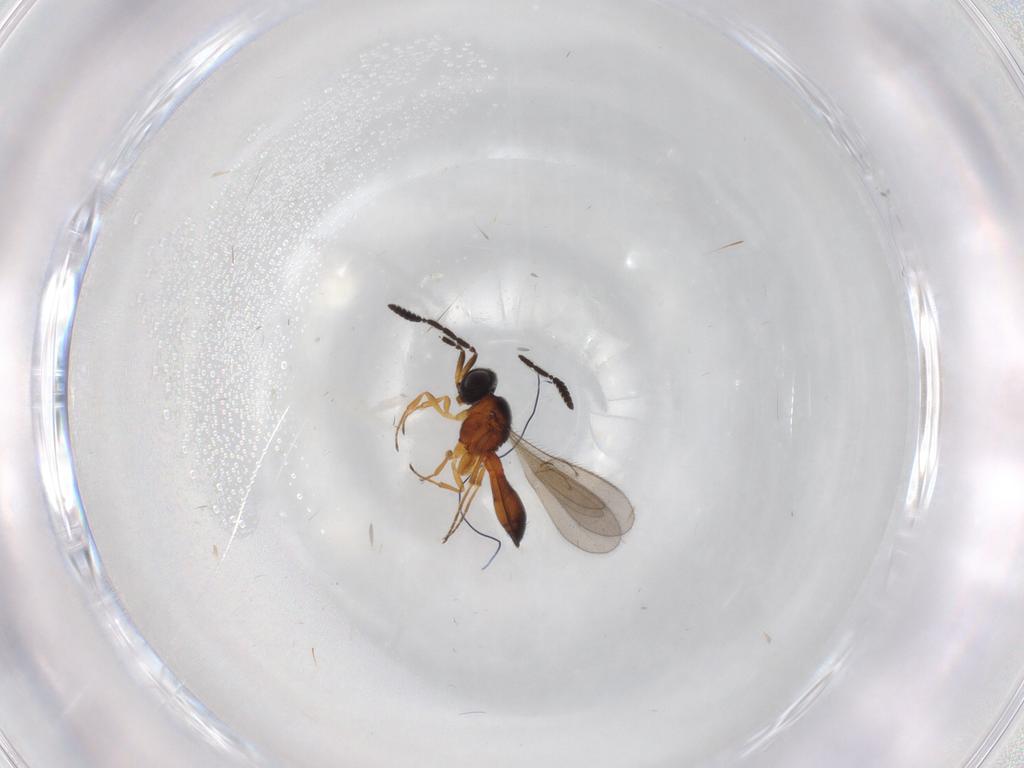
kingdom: Animalia
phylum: Arthropoda
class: Insecta
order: Hymenoptera
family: Scelionidae
